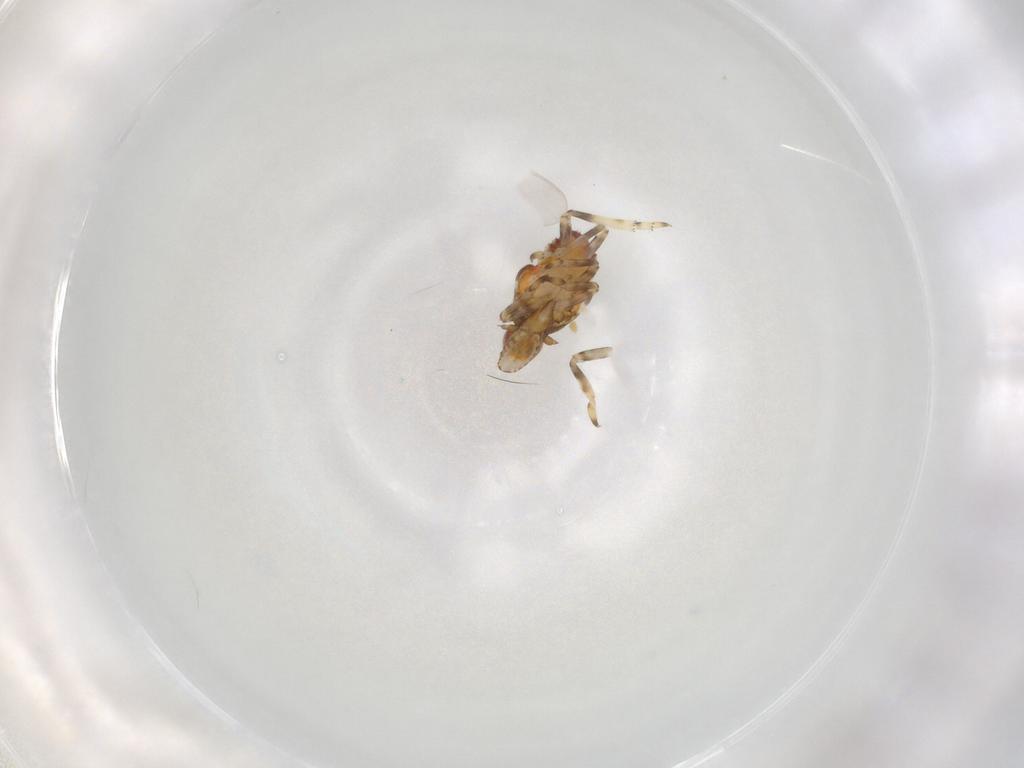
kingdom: Animalia
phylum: Arthropoda
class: Insecta
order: Hemiptera
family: Tropiduchidae
